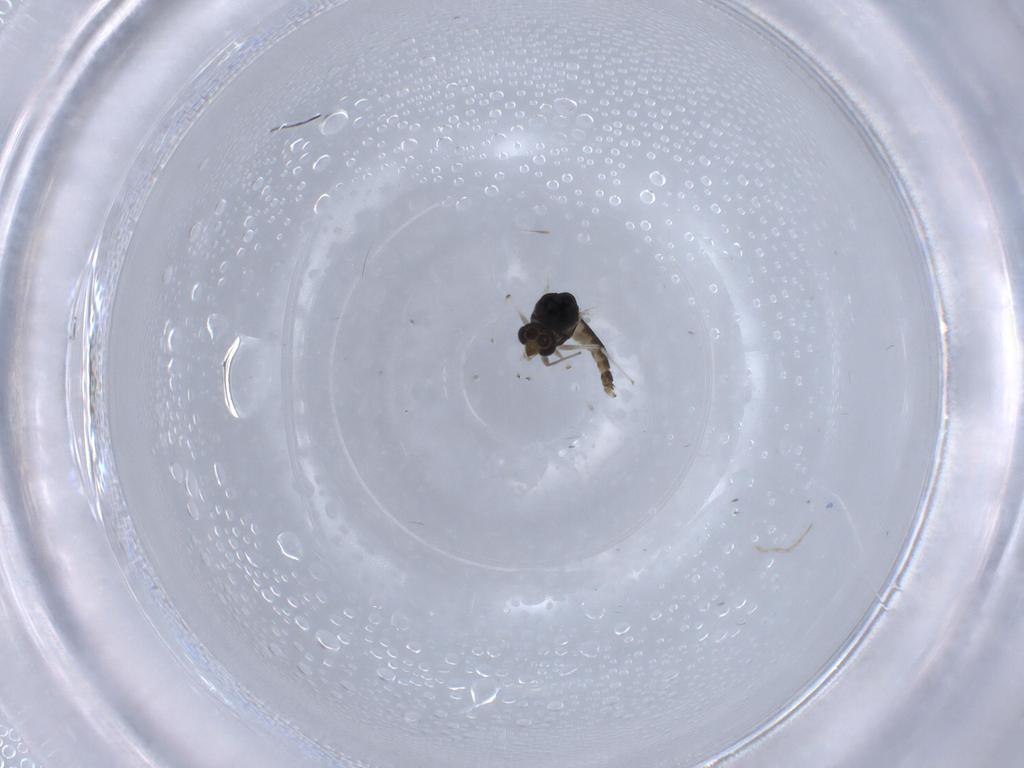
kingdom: Animalia
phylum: Arthropoda
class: Insecta
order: Diptera
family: Chironomidae
